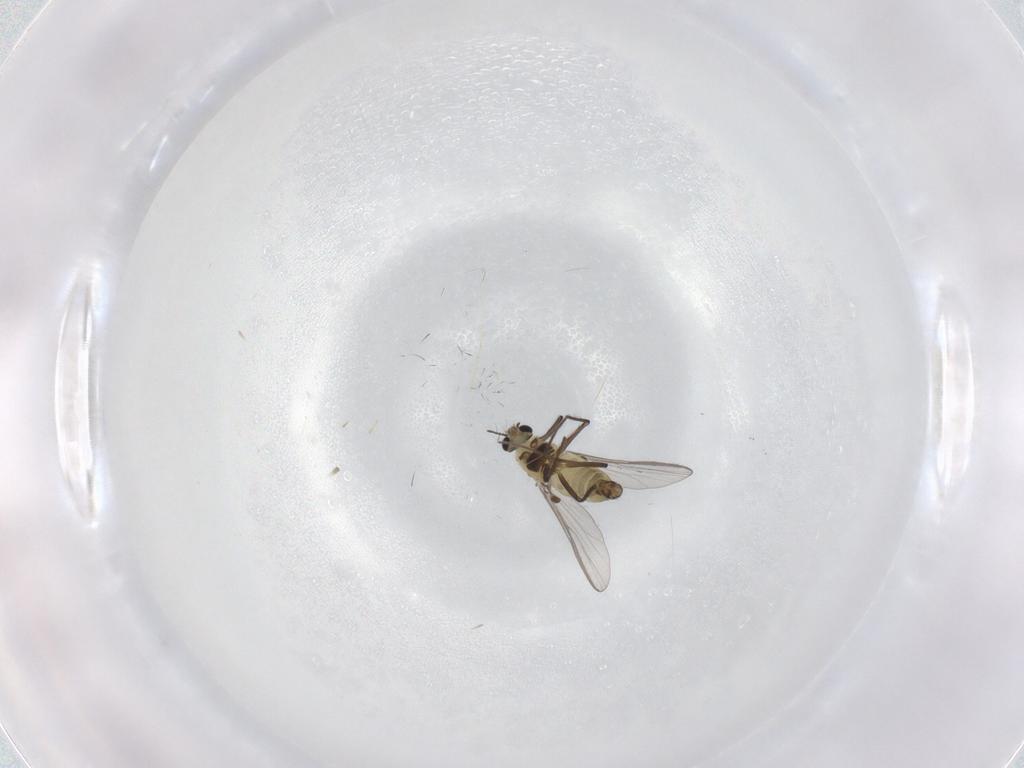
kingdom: Animalia
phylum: Arthropoda
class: Insecta
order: Diptera
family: Chironomidae
